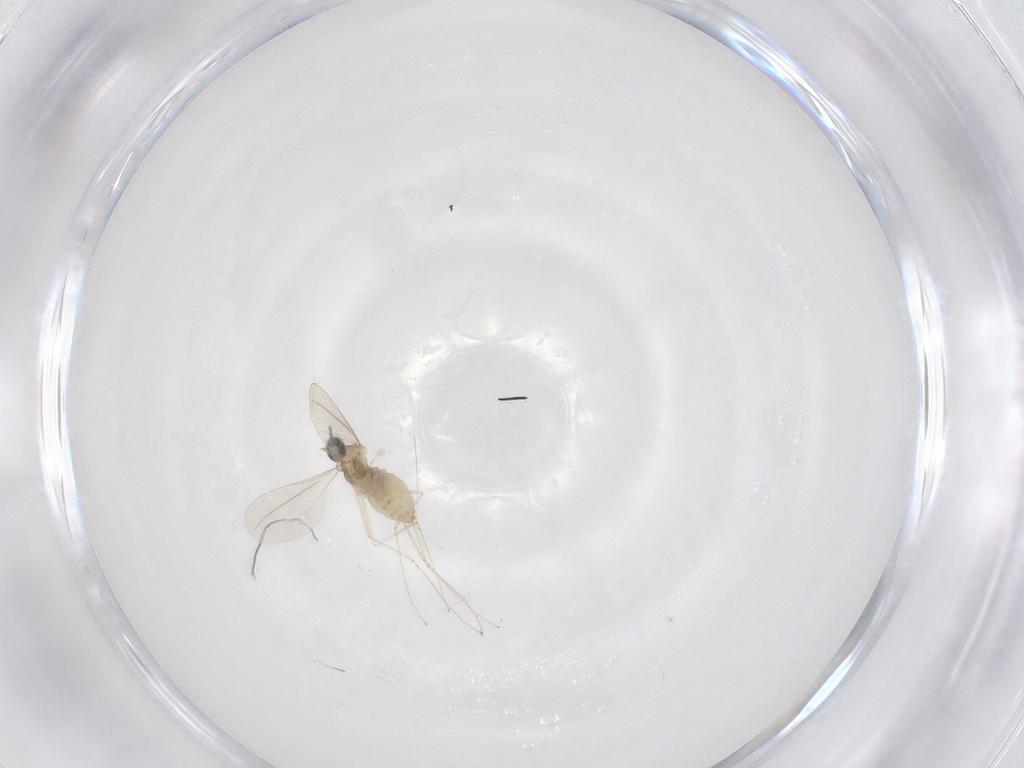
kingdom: Animalia
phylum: Arthropoda
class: Insecta
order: Diptera
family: Cecidomyiidae
